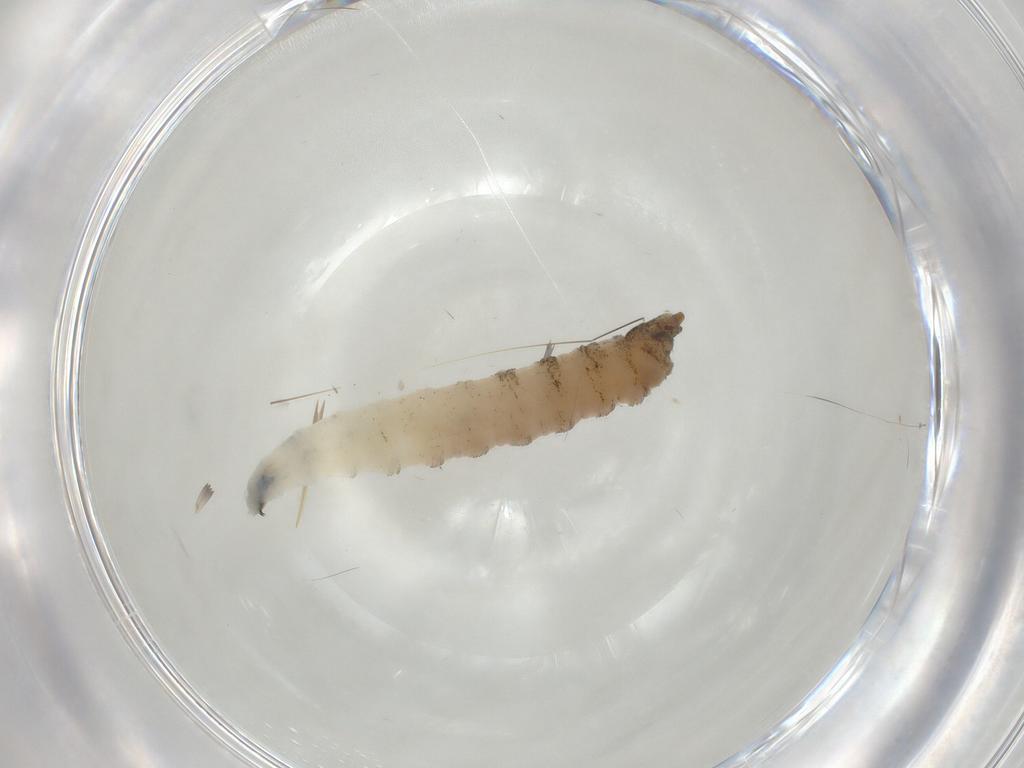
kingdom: Animalia
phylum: Arthropoda
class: Insecta
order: Diptera
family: Drosophilidae
